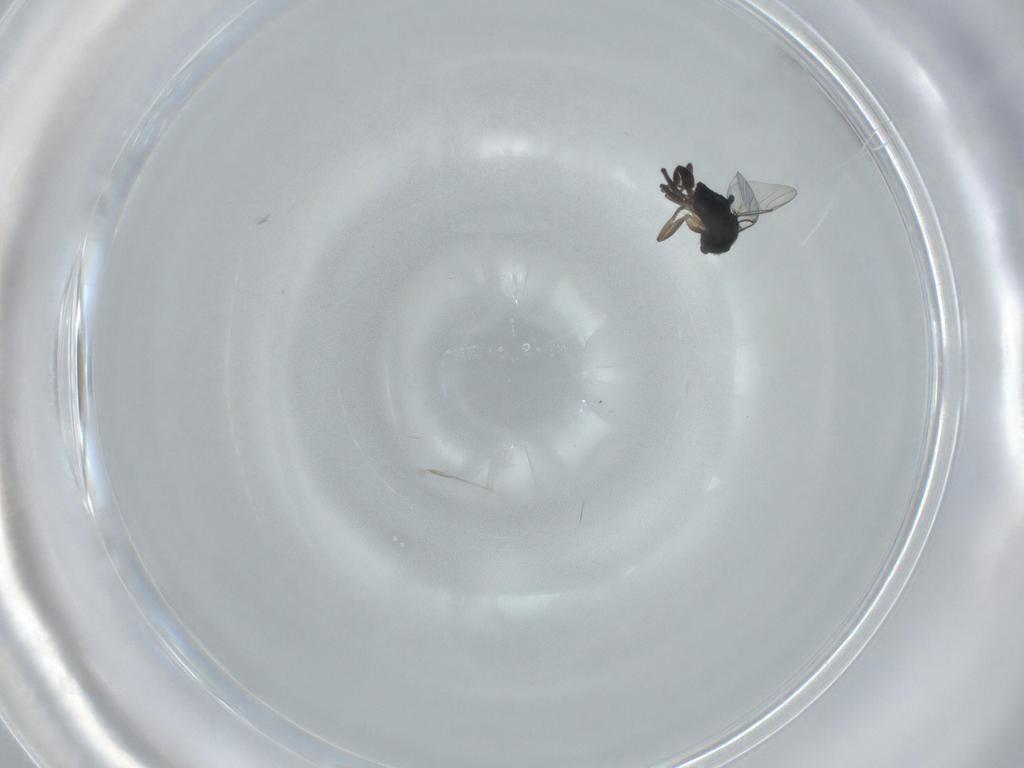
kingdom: Animalia
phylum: Arthropoda
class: Insecta
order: Diptera
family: Phoridae
